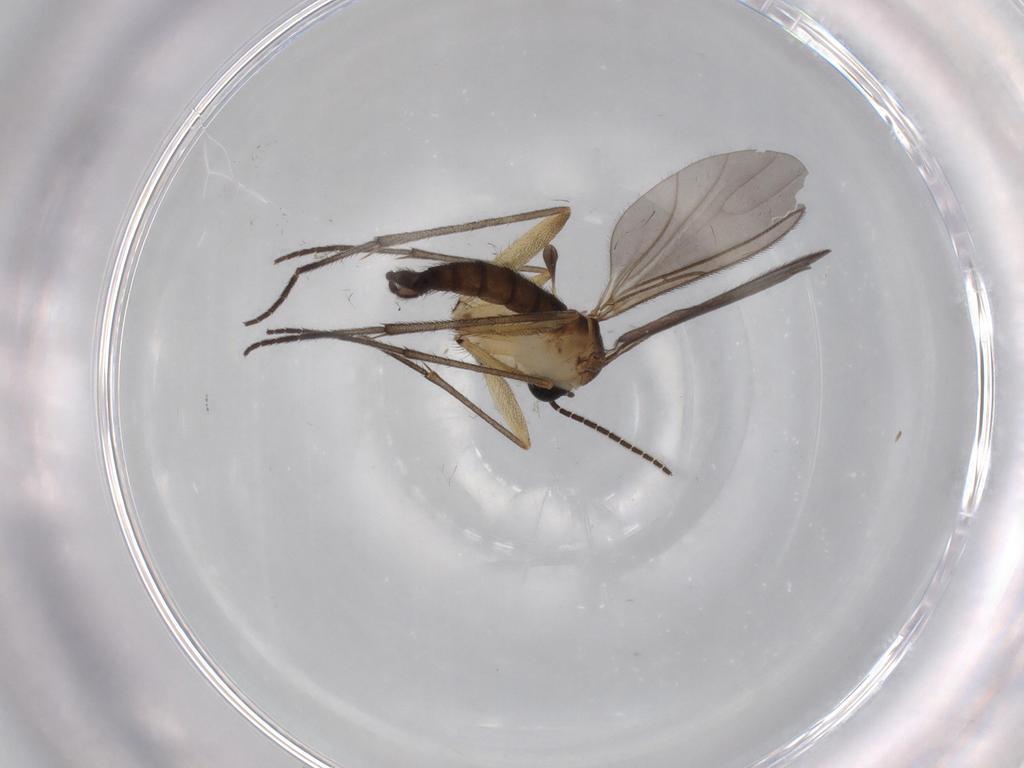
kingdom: Animalia
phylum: Arthropoda
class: Insecta
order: Diptera
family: Sciaridae
